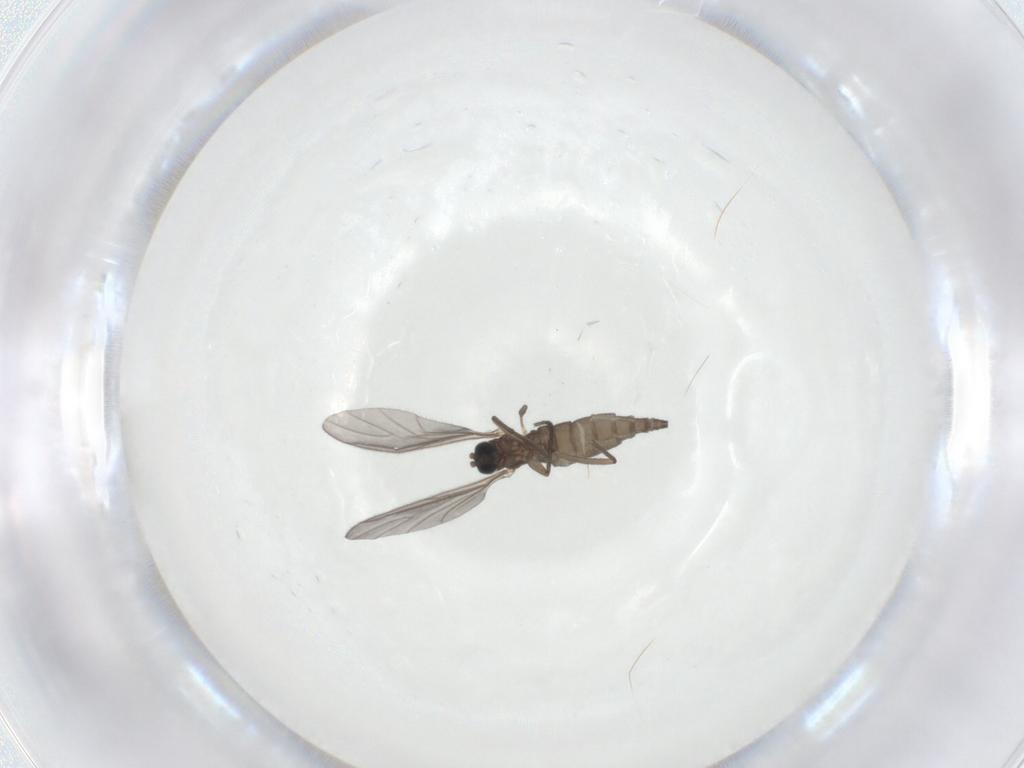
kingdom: Animalia
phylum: Arthropoda
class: Insecta
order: Diptera
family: Sciaridae
